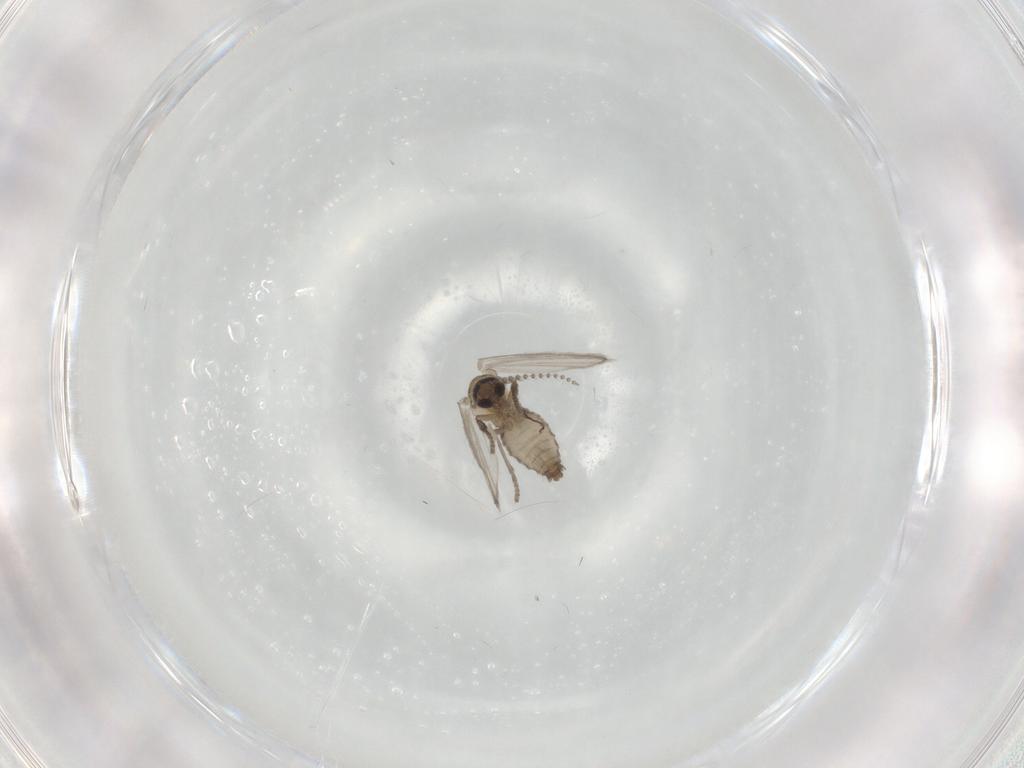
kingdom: Animalia
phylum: Arthropoda
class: Insecta
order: Diptera
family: Psychodidae
